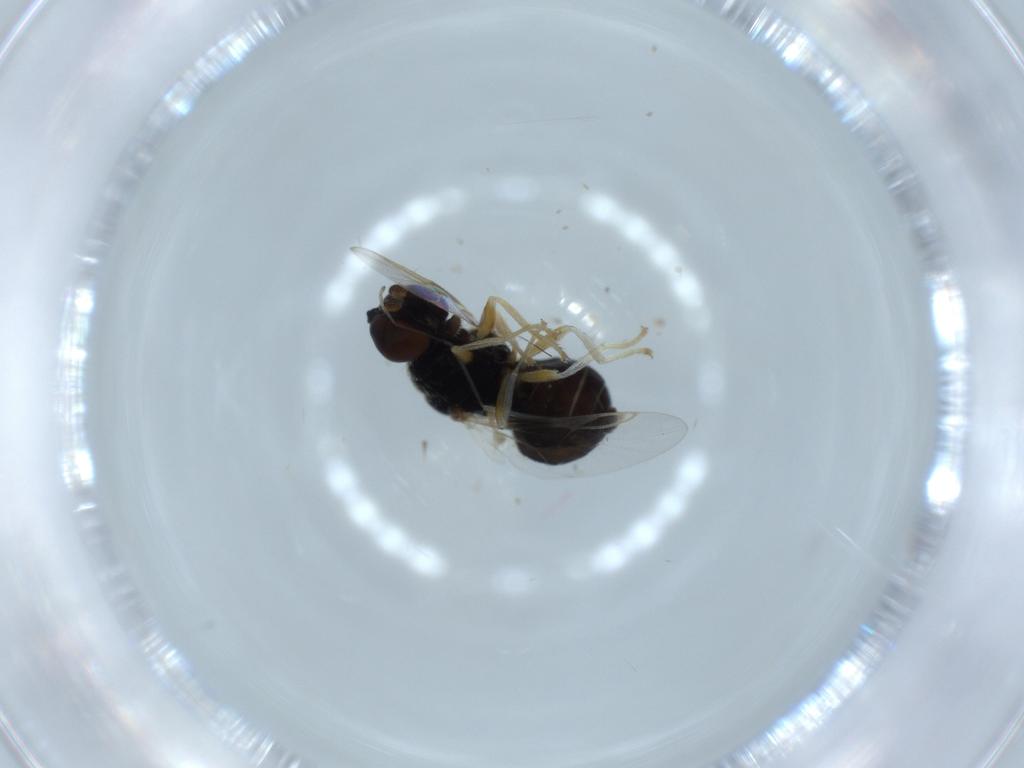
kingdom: Animalia
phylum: Arthropoda
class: Insecta
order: Diptera
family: Stratiomyidae
